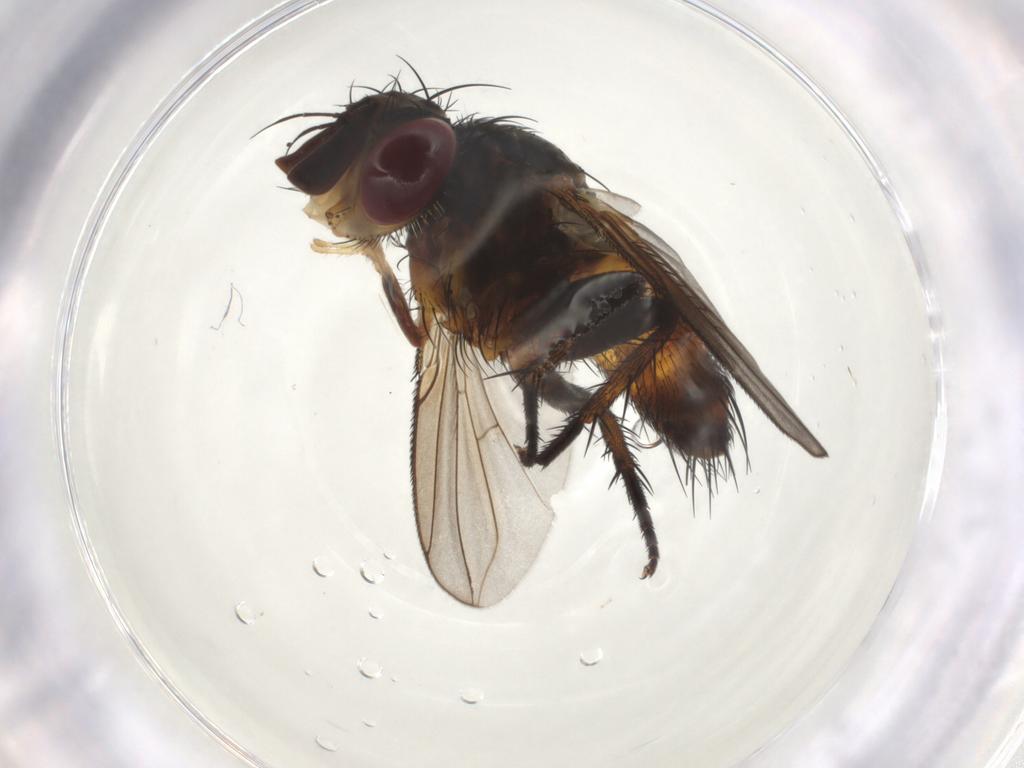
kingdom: Animalia
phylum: Arthropoda
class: Insecta
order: Diptera
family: Tachinidae
